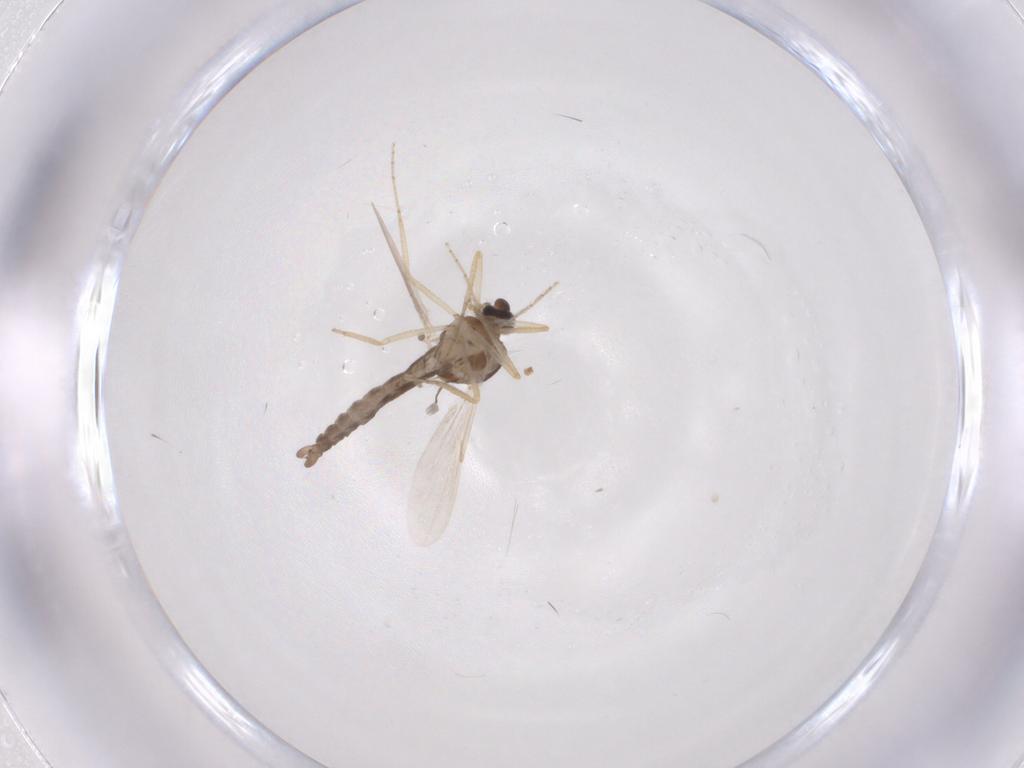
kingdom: Animalia
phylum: Arthropoda
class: Insecta
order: Diptera
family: Ceratopogonidae
